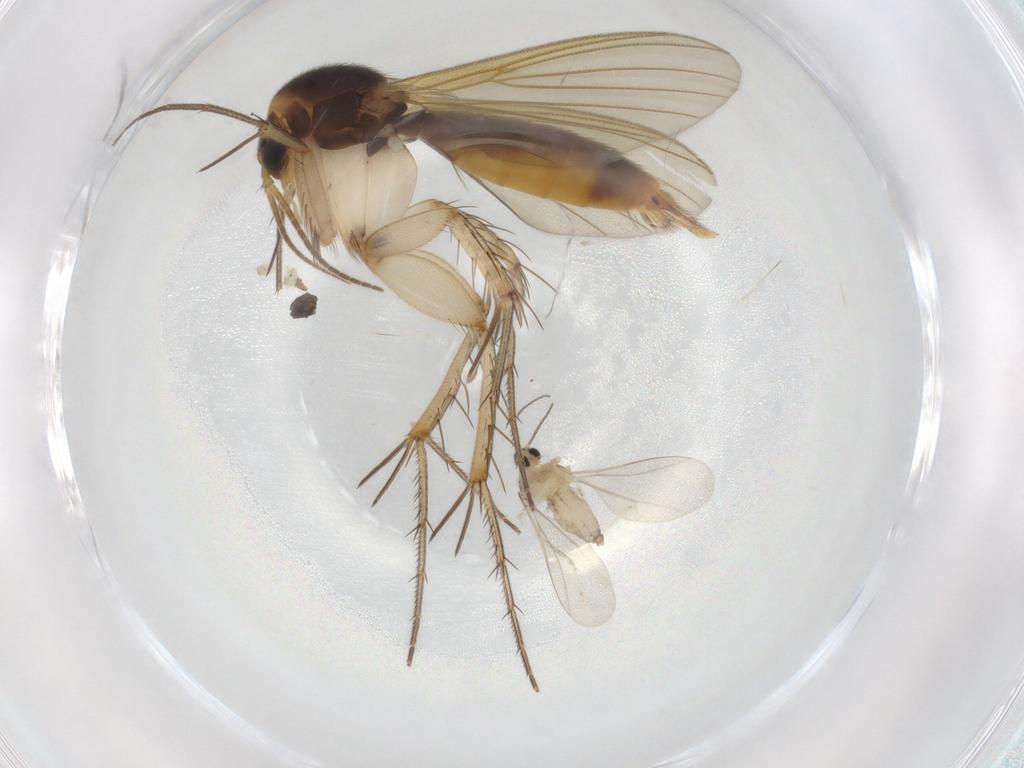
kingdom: Animalia
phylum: Arthropoda
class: Insecta
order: Diptera
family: Ceratopogonidae
